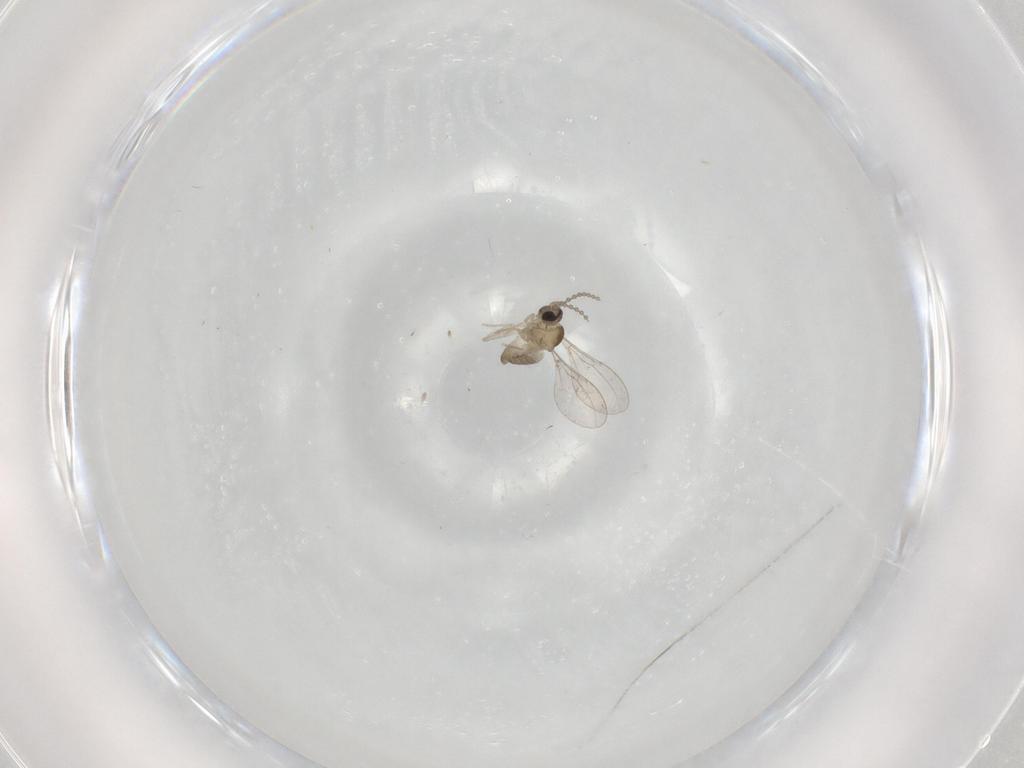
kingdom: Animalia
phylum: Arthropoda
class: Insecta
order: Diptera
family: Cecidomyiidae
